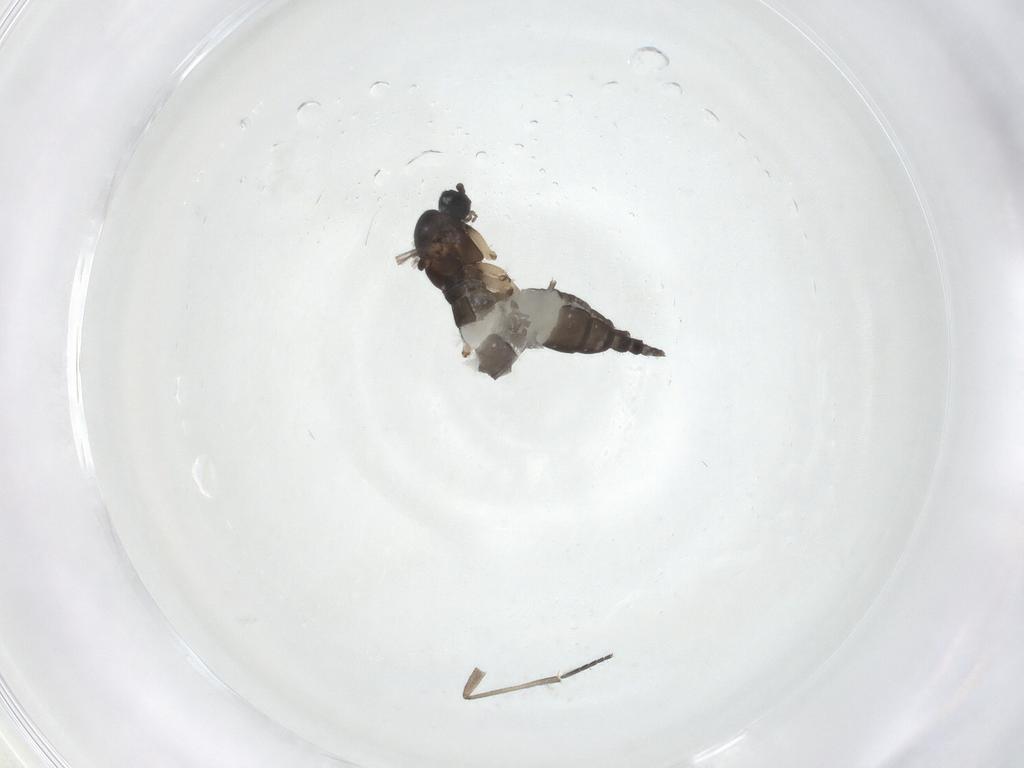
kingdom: Animalia
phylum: Arthropoda
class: Insecta
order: Diptera
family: Sciaridae
